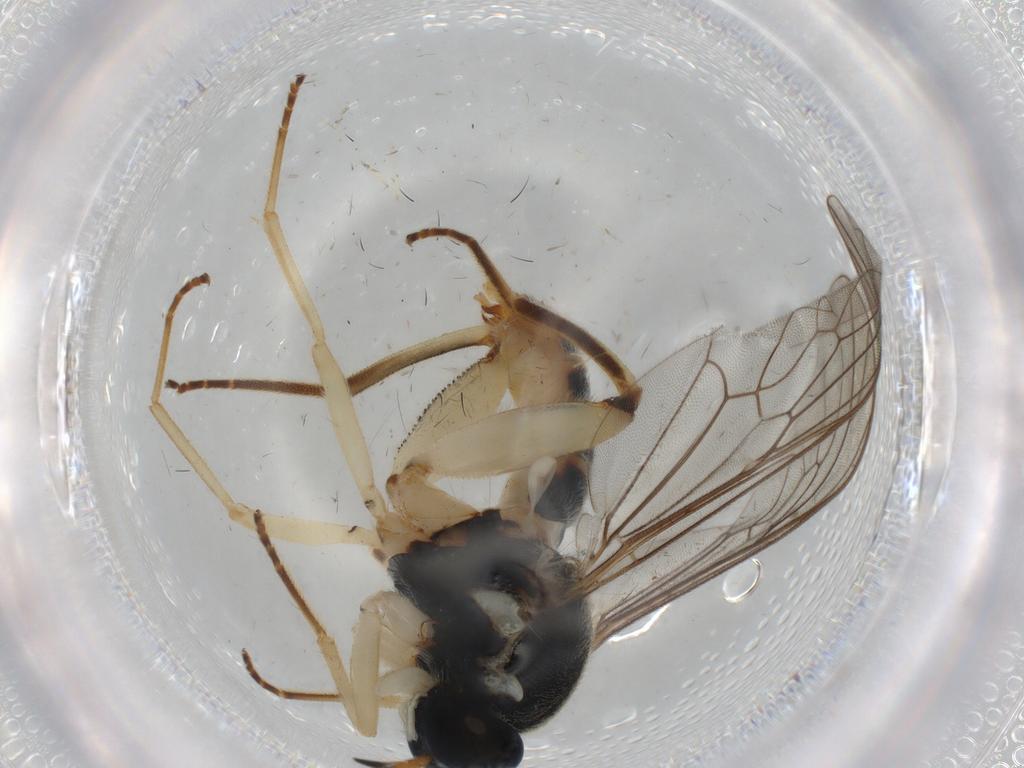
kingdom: Animalia
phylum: Arthropoda
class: Insecta
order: Diptera
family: Sphaeroceridae
